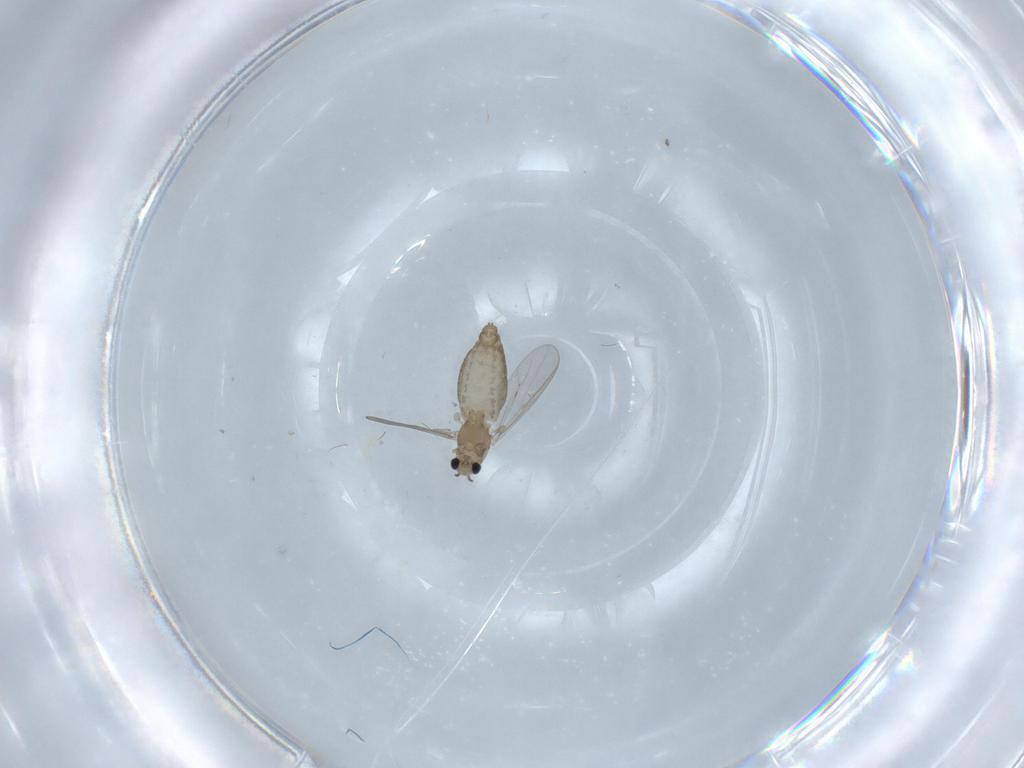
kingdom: Animalia
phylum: Arthropoda
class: Insecta
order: Diptera
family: Chironomidae
